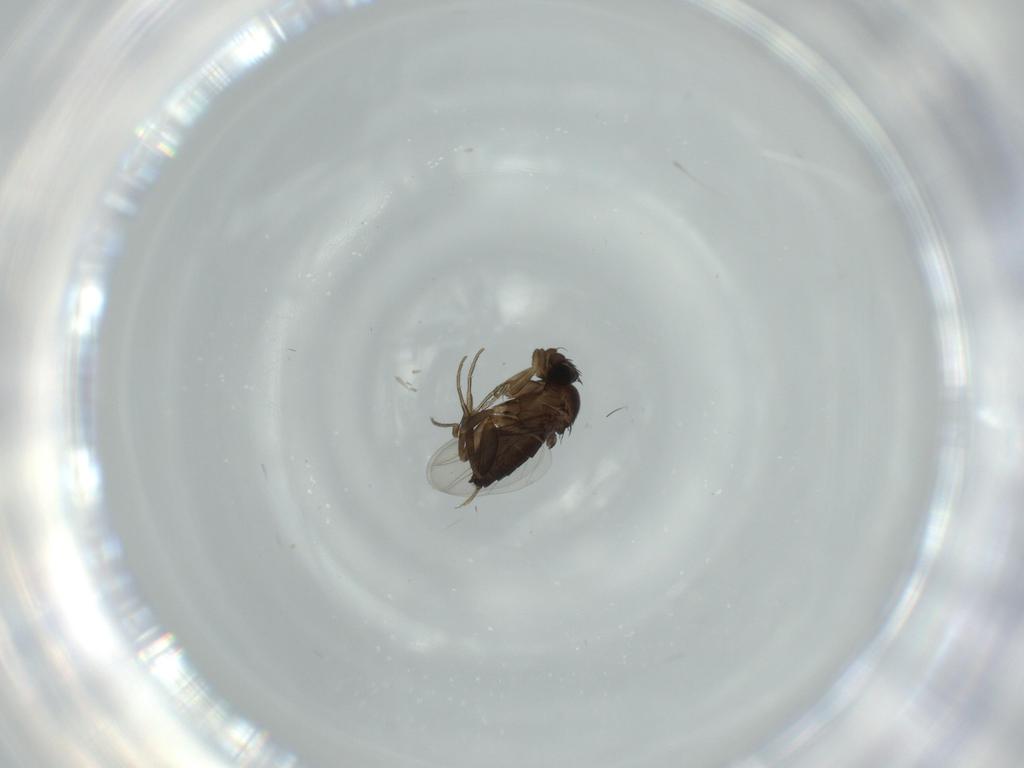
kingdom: Animalia
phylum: Arthropoda
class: Insecta
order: Diptera
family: Phoridae
